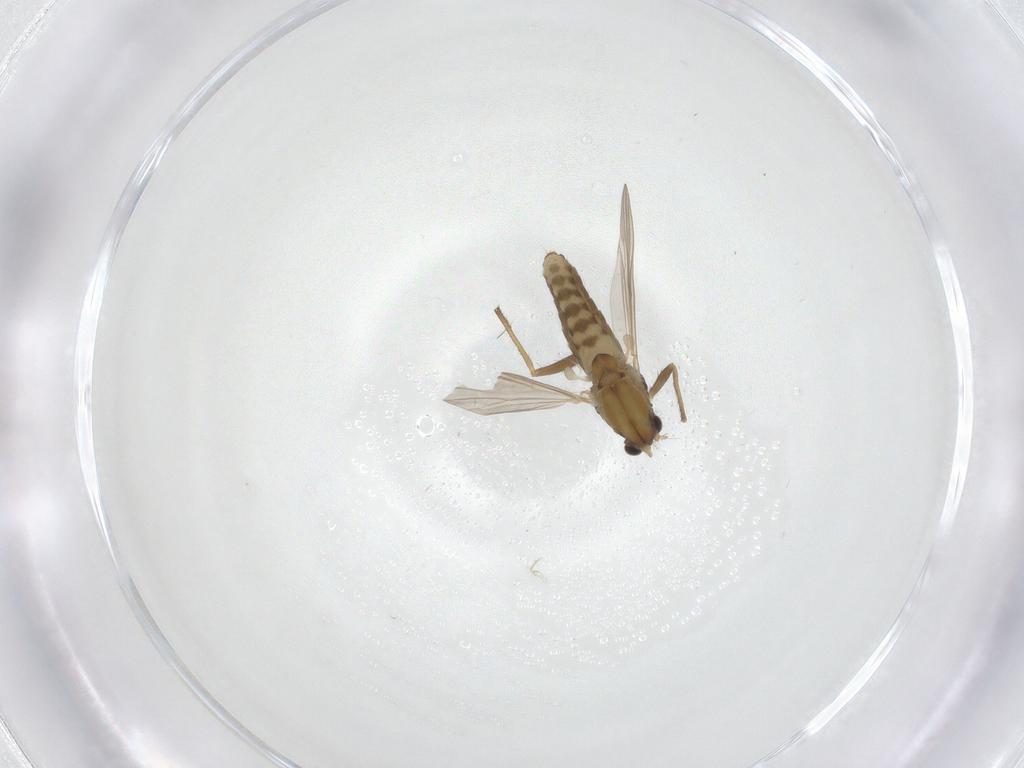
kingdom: Animalia
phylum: Arthropoda
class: Insecta
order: Diptera
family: Chironomidae
